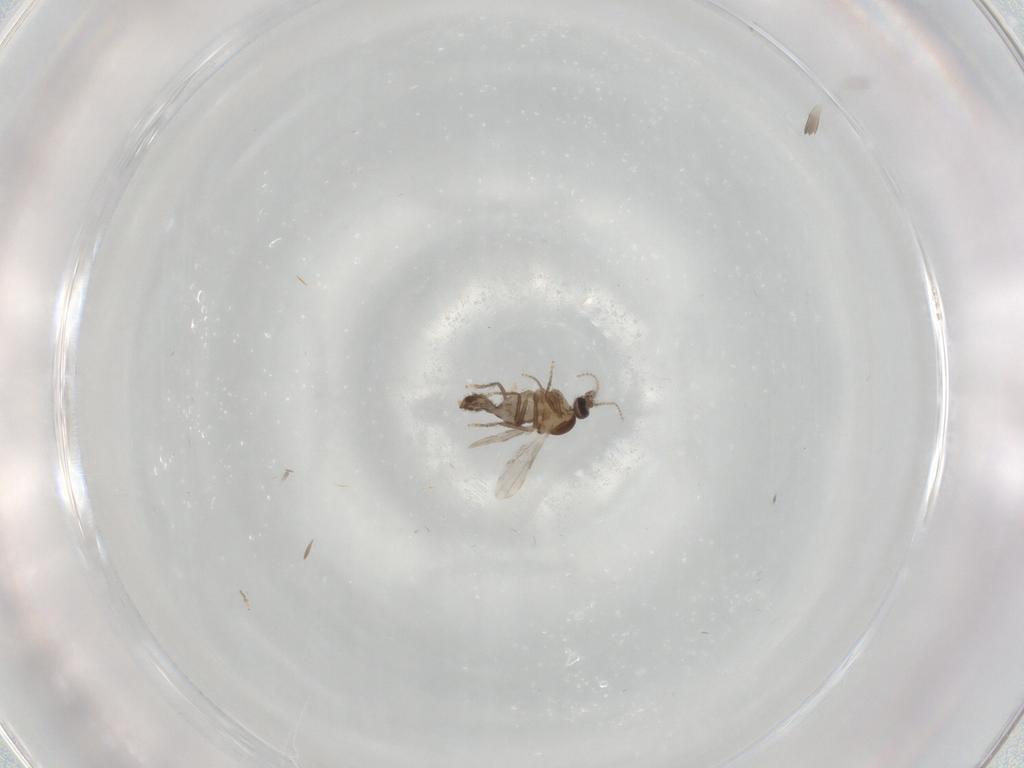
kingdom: Animalia
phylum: Arthropoda
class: Insecta
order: Diptera
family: Ceratopogonidae
